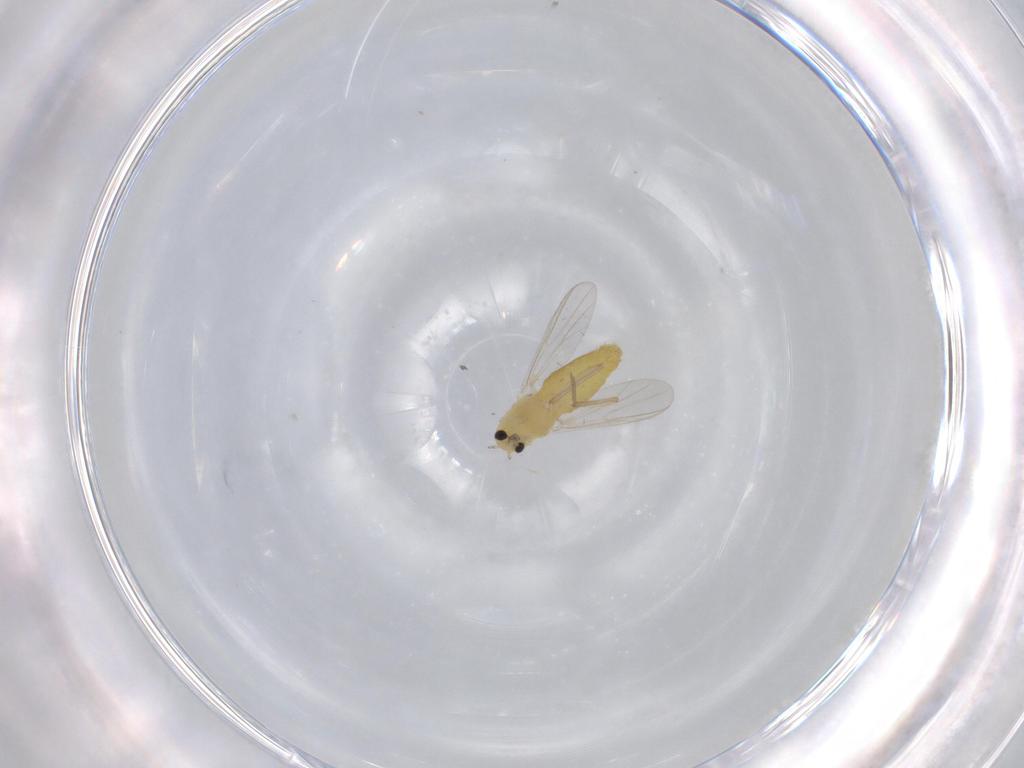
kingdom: Animalia
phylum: Arthropoda
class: Insecta
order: Diptera
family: Chironomidae
